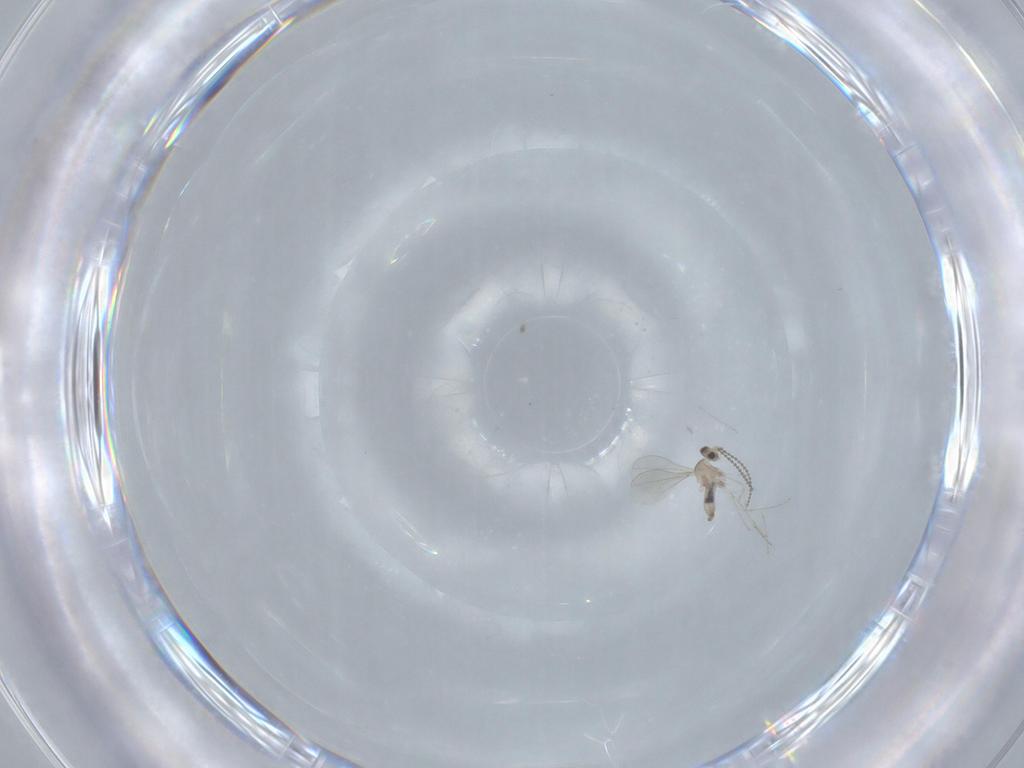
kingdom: Animalia
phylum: Arthropoda
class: Insecta
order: Diptera
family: Cecidomyiidae
